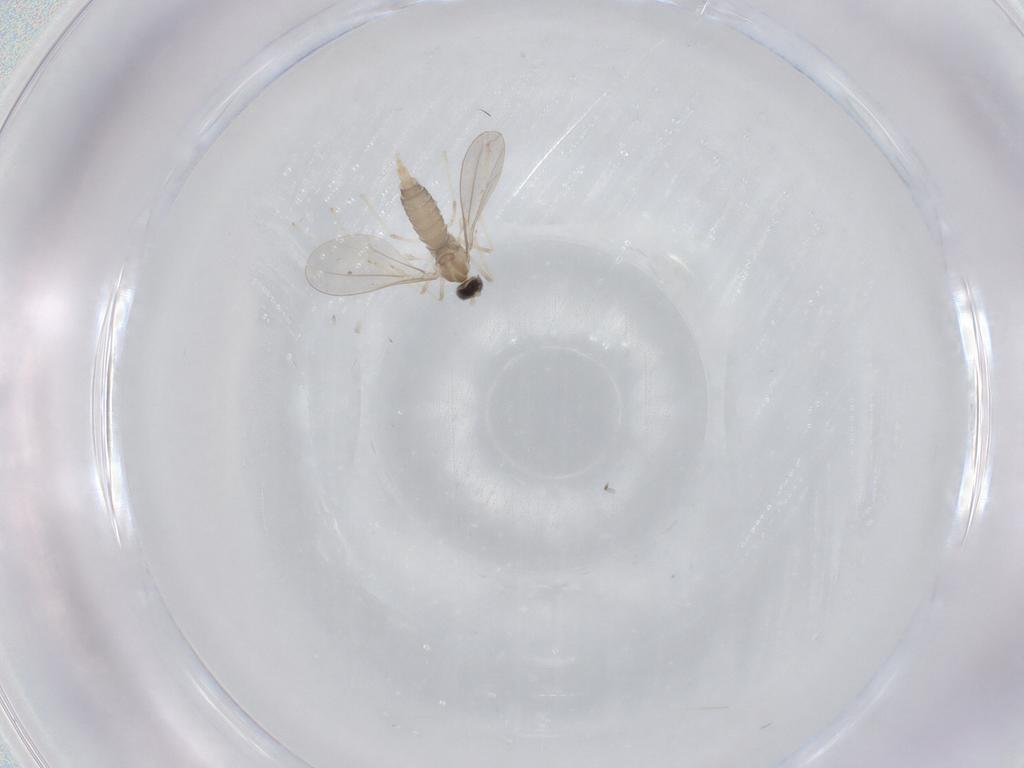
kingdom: Animalia
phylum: Arthropoda
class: Insecta
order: Diptera
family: Cecidomyiidae
